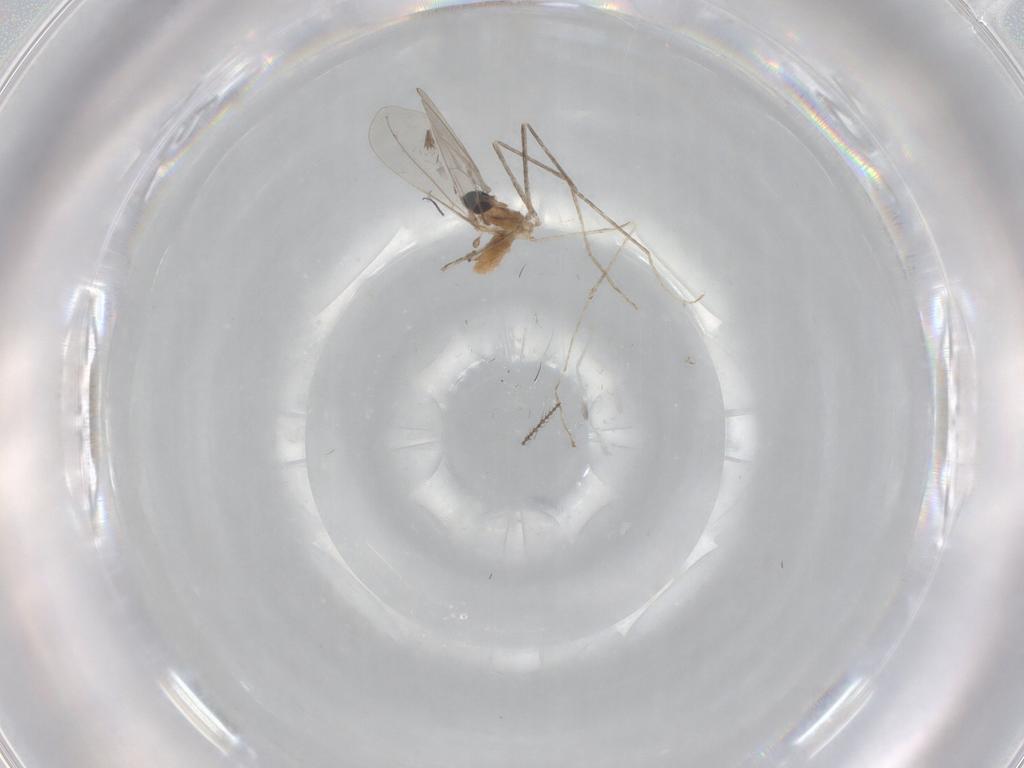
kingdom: Animalia
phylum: Arthropoda
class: Insecta
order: Diptera
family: Cecidomyiidae
